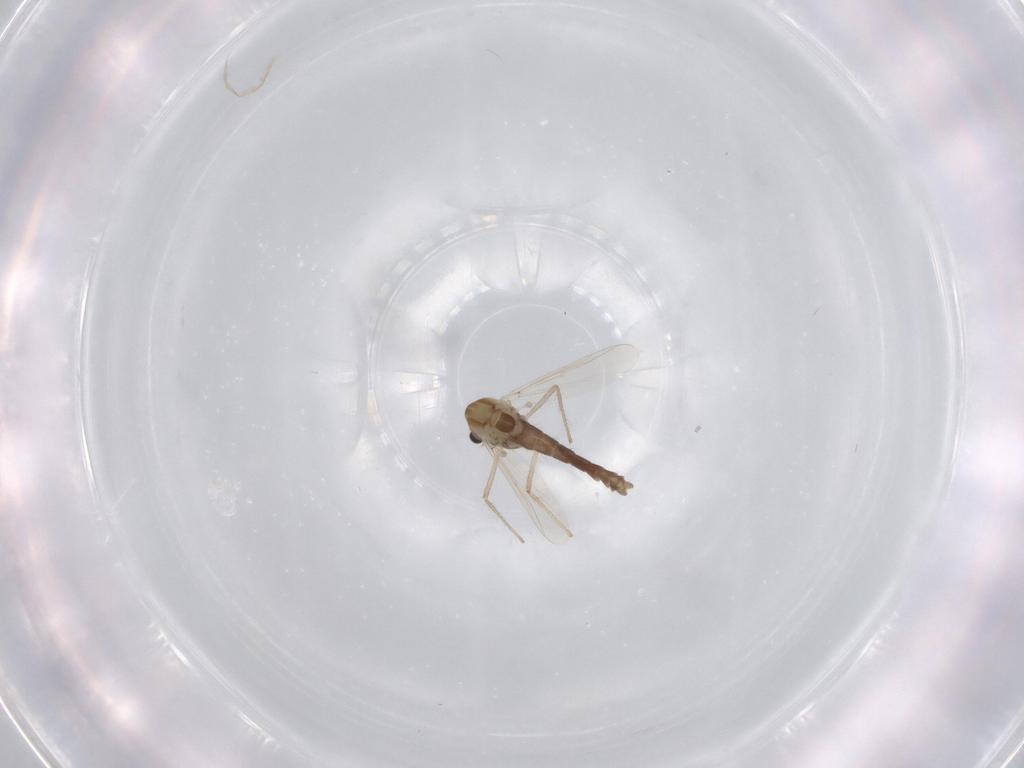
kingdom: Animalia
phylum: Arthropoda
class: Insecta
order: Diptera
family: Chironomidae
